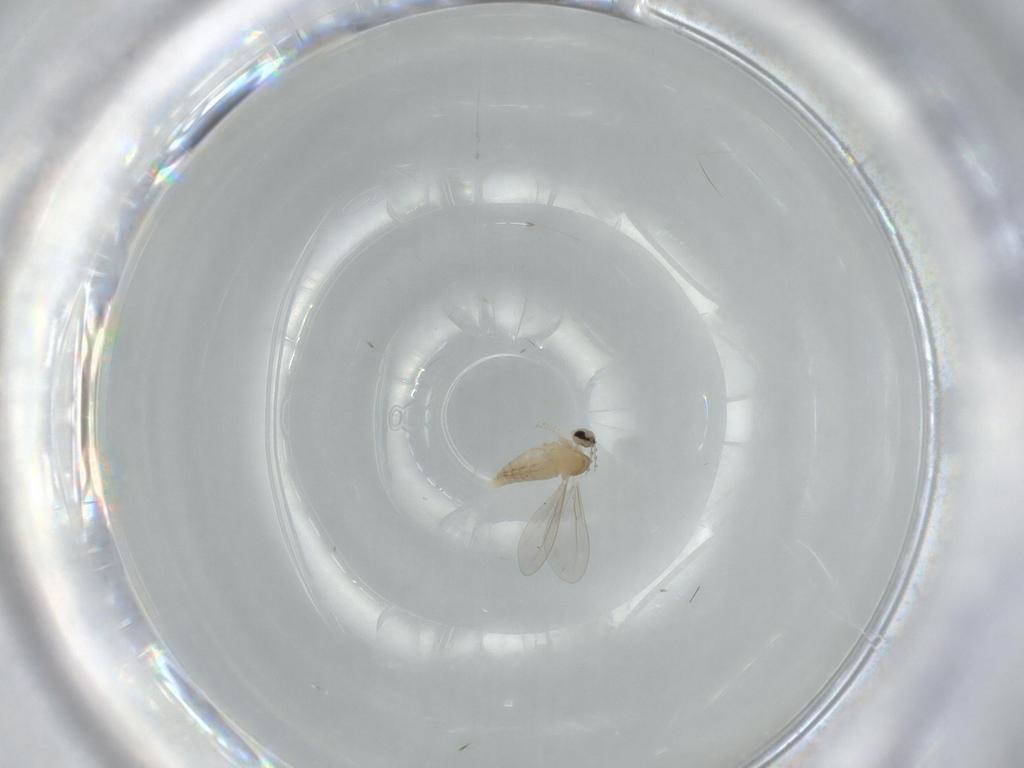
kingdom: Animalia
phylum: Arthropoda
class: Insecta
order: Diptera
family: Cecidomyiidae
